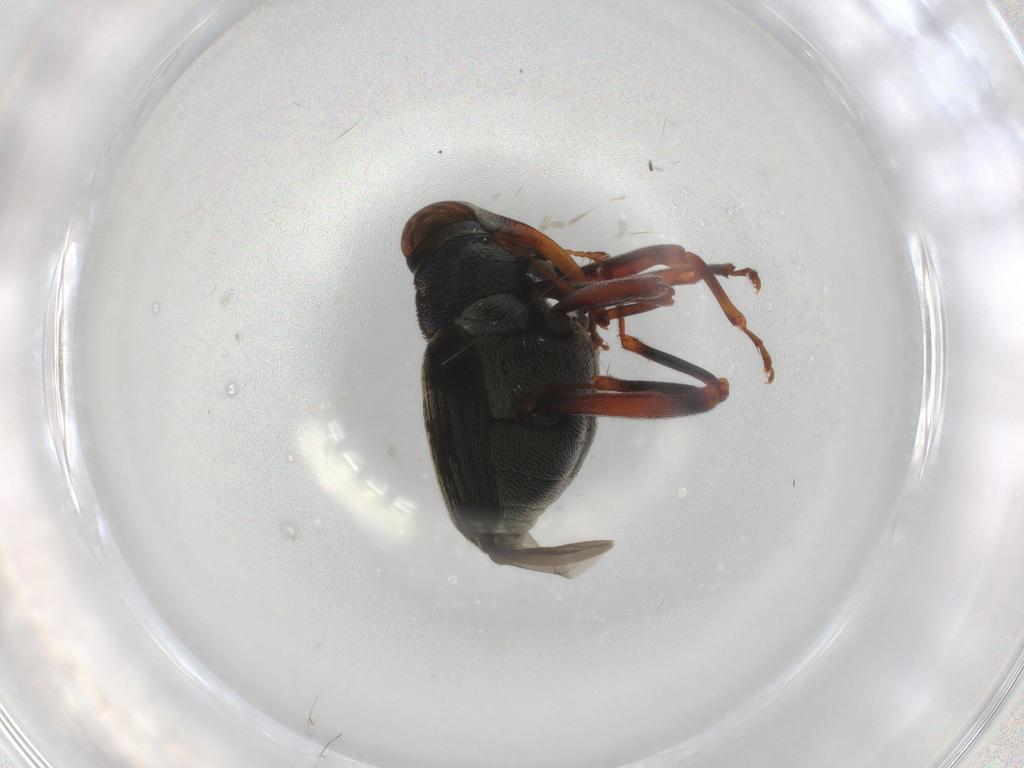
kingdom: Animalia
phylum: Arthropoda
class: Insecta
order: Coleoptera
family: Curculionidae
